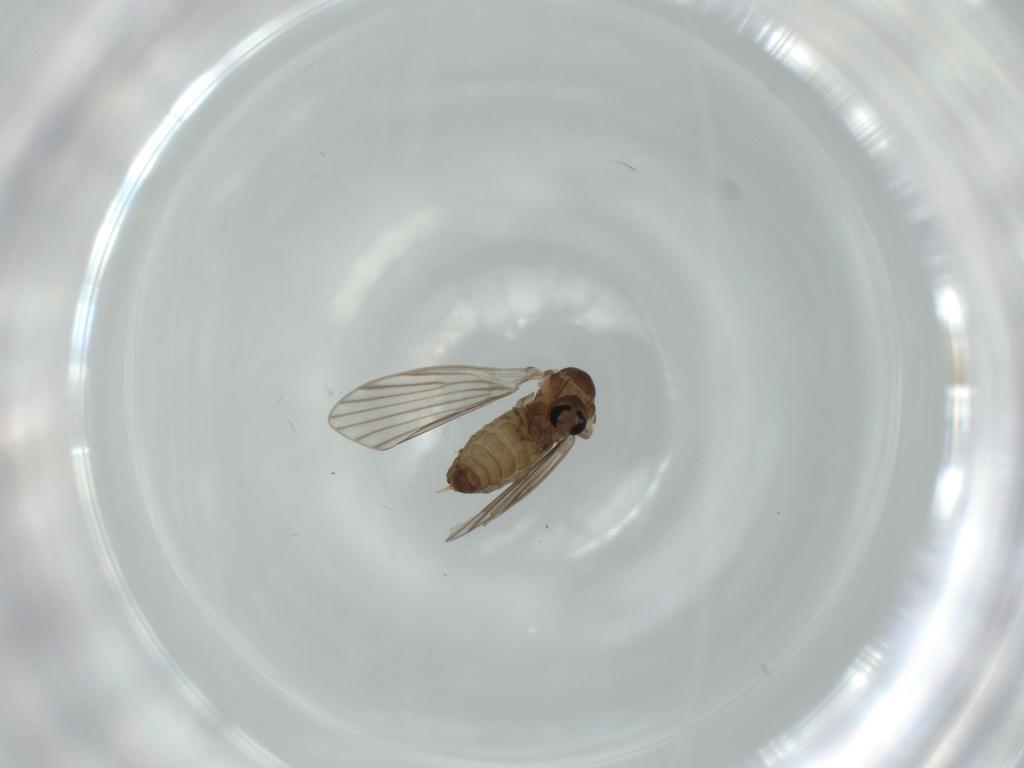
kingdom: Animalia
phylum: Arthropoda
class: Insecta
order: Diptera
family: Psychodidae
